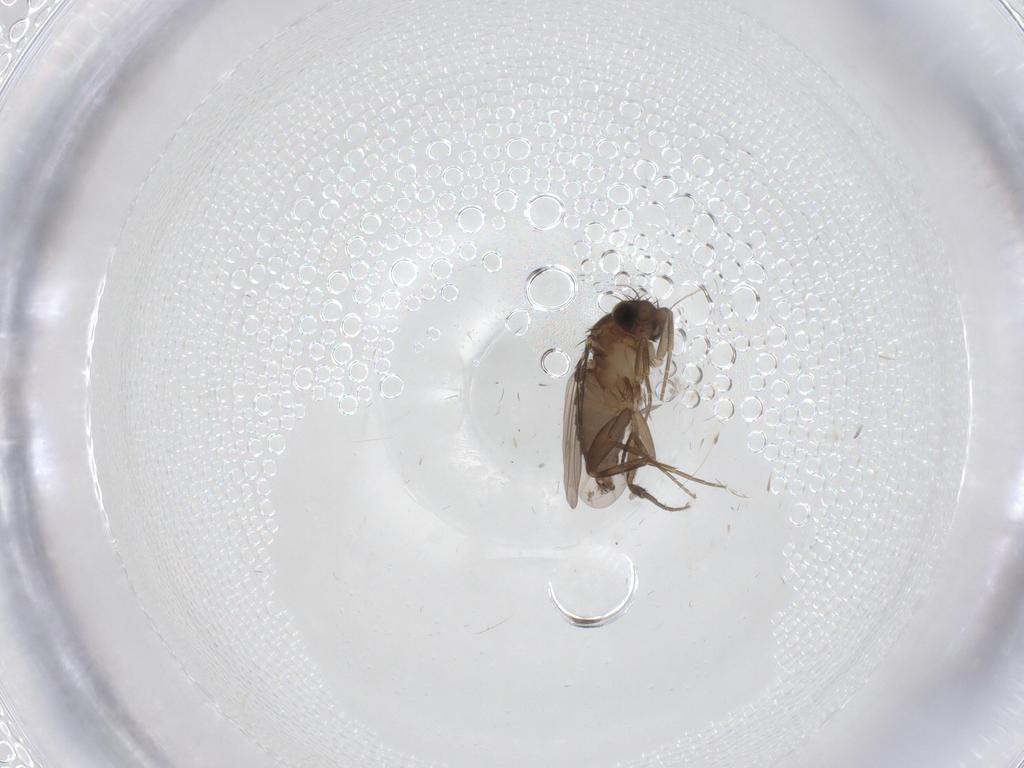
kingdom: Animalia
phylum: Arthropoda
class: Insecta
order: Diptera
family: Phoridae
